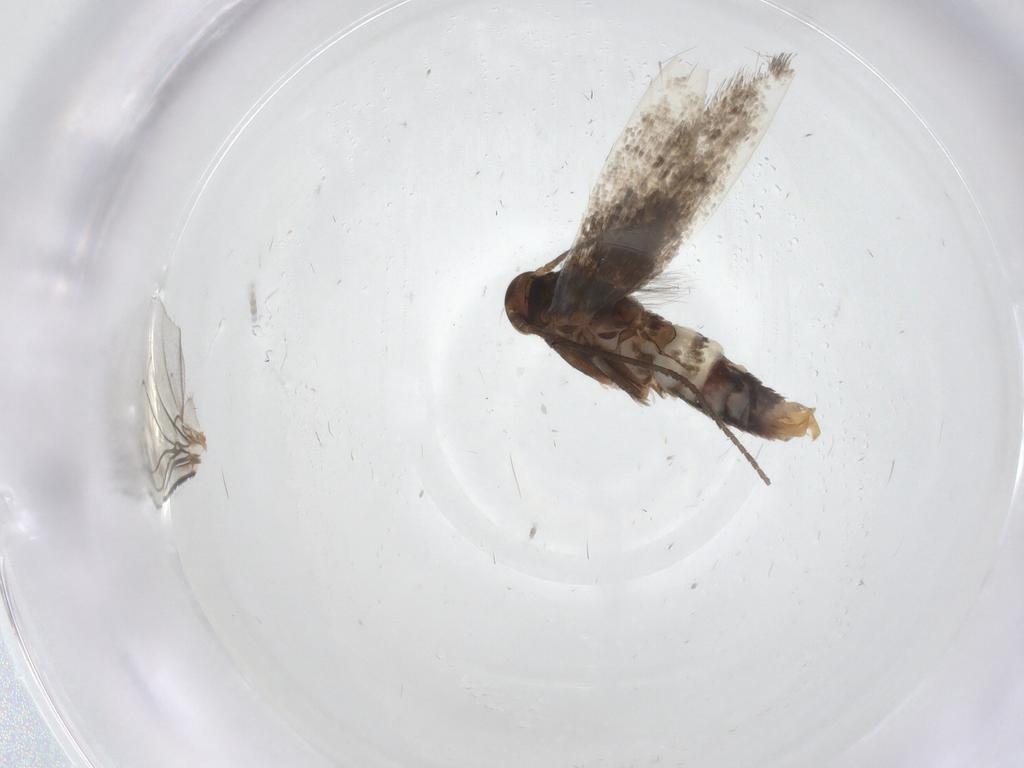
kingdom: Animalia
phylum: Arthropoda
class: Insecta
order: Lepidoptera
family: Elachistidae
